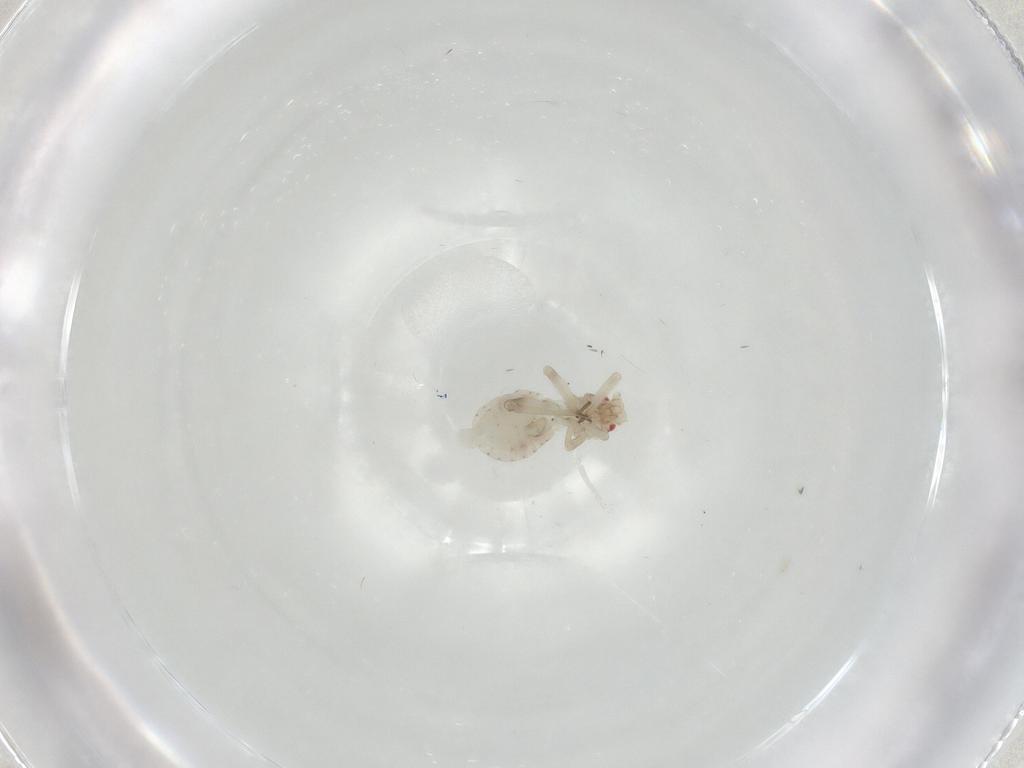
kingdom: Animalia
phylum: Arthropoda
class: Insecta
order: Hemiptera
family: Aphididae
